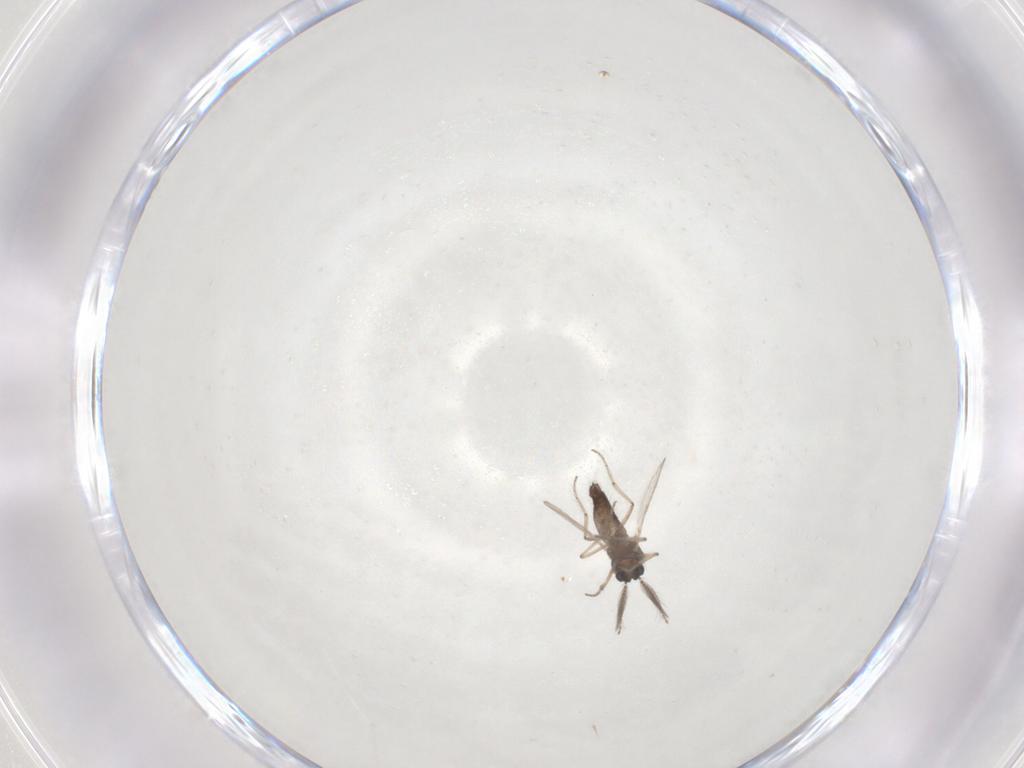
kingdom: Animalia
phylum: Arthropoda
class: Insecta
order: Diptera
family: Ceratopogonidae
